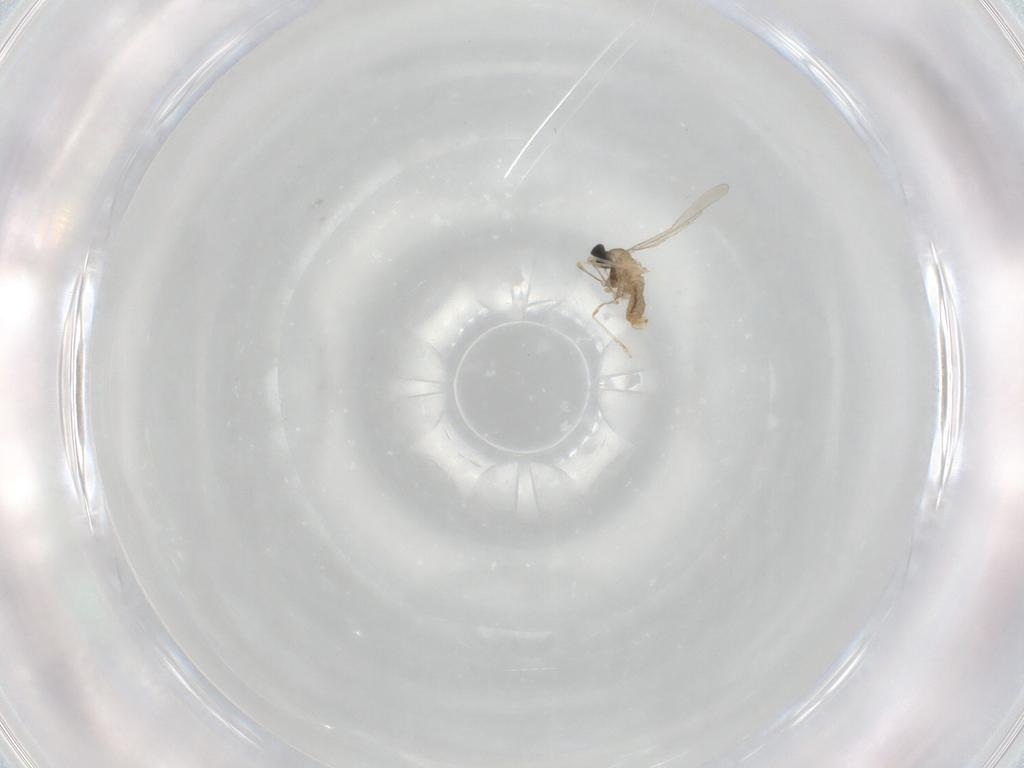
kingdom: Animalia
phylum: Arthropoda
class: Insecta
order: Diptera
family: Cecidomyiidae
